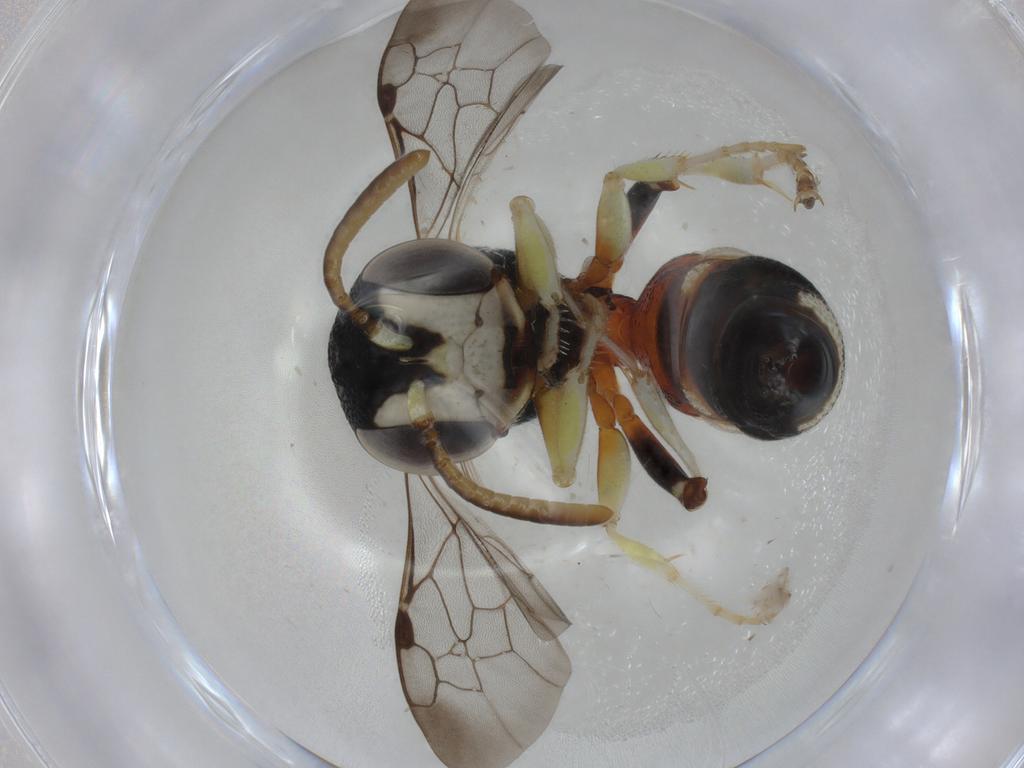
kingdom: Animalia
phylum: Arthropoda
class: Insecta
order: Hymenoptera
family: Crabronidae
